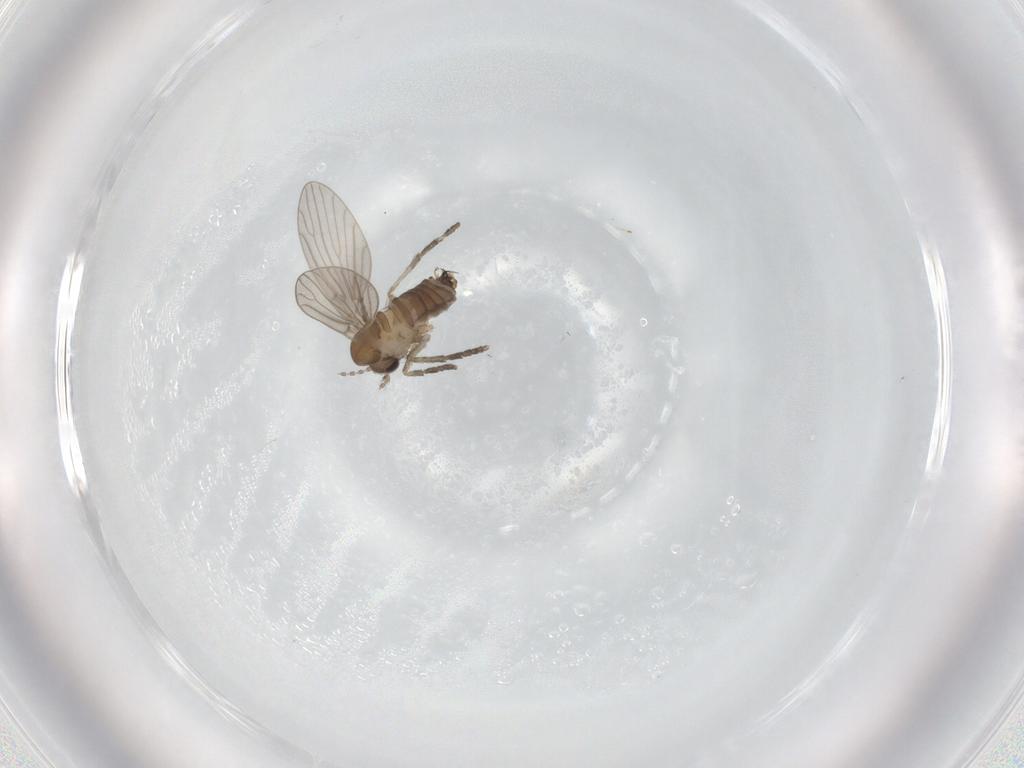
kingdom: Animalia
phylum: Arthropoda
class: Insecta
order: Diptera
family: Psychodidae
